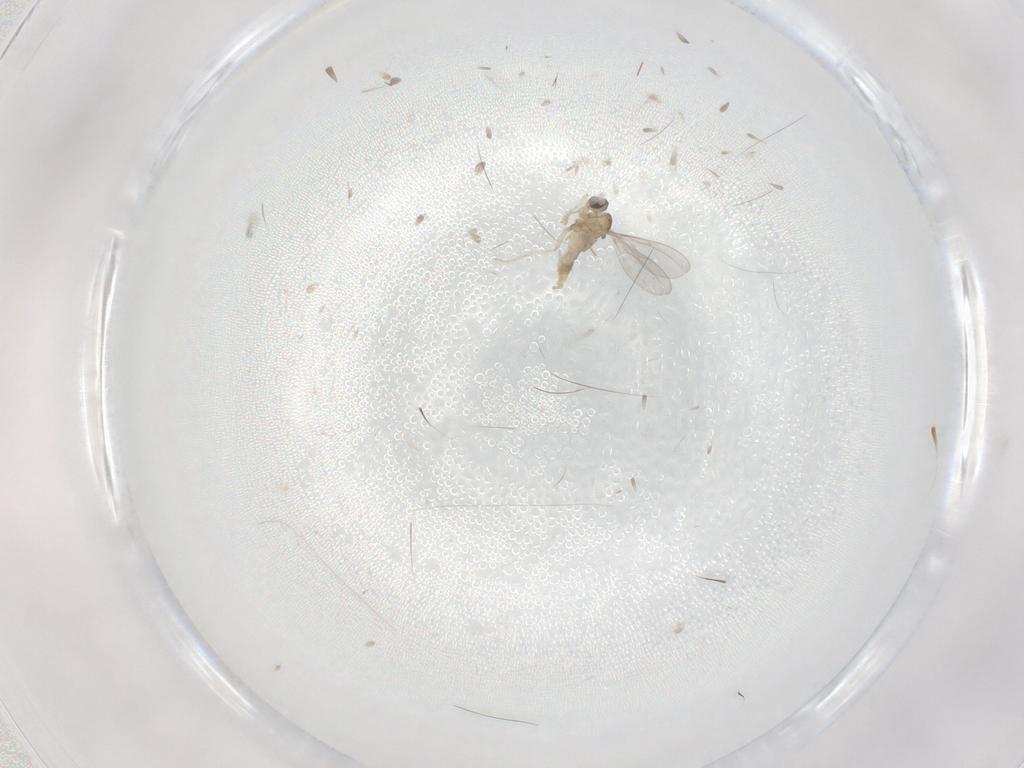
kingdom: Animalia
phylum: Arthropoda
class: Insecta
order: Diptera
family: Cecidomyiidae
